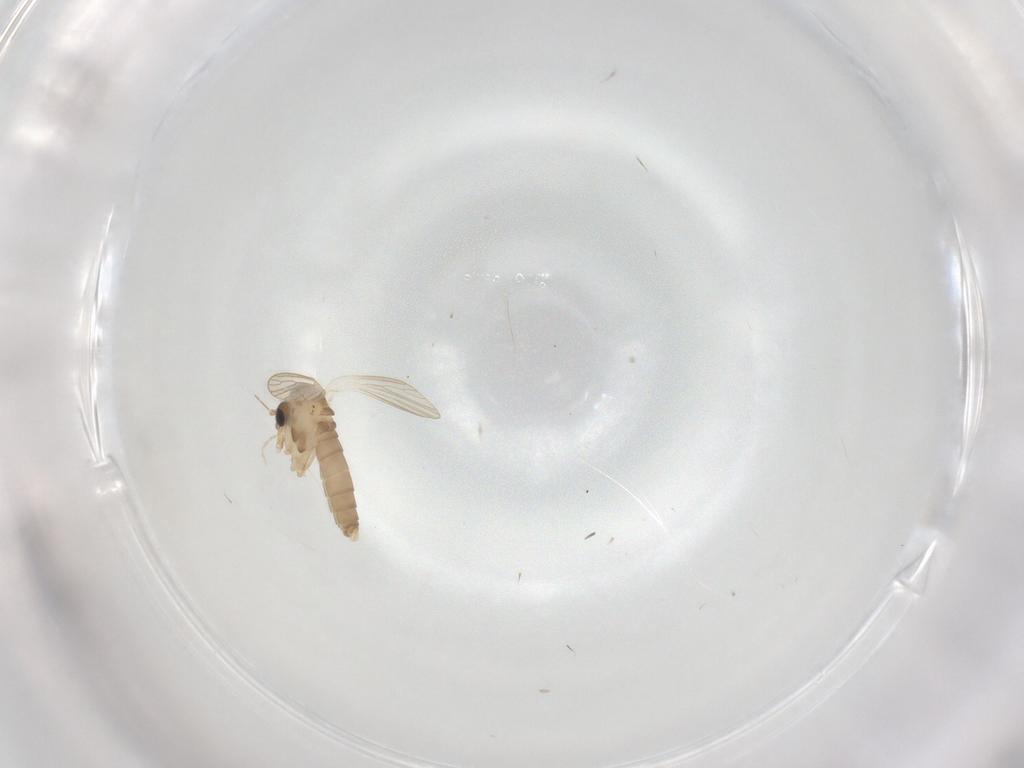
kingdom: Animalia
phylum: Arthropoda
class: Insecta
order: Diptera
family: Psychodidae
